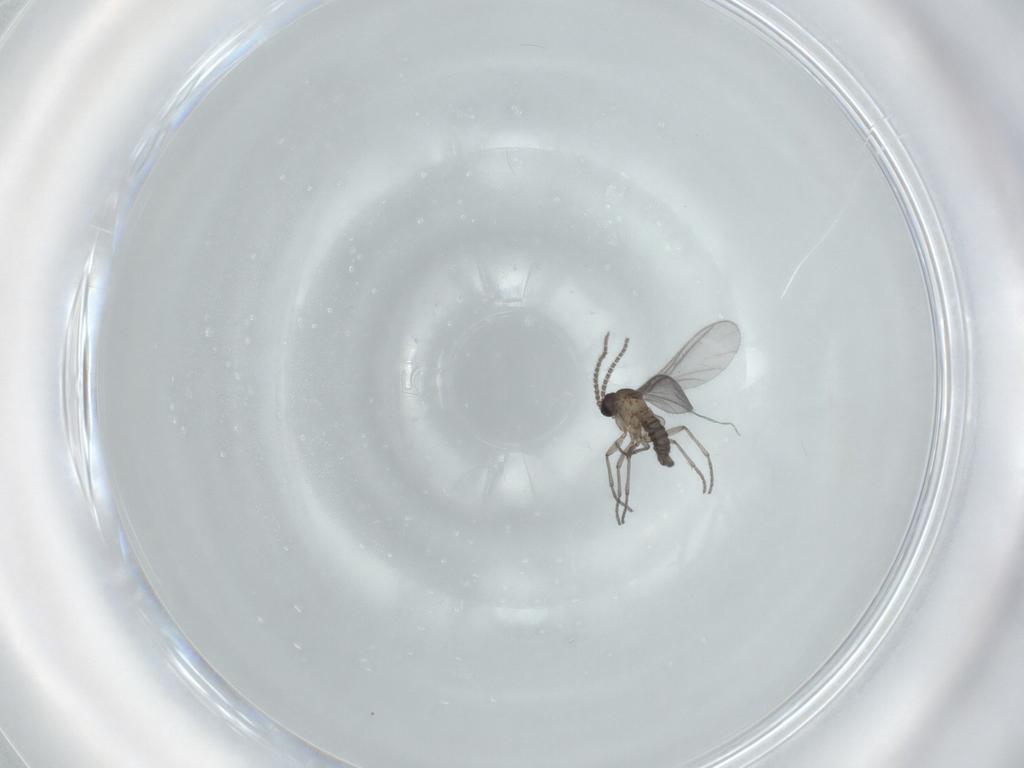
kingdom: Animalia
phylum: Arthropoda
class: Insecta
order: Diptera
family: Sciaridae
